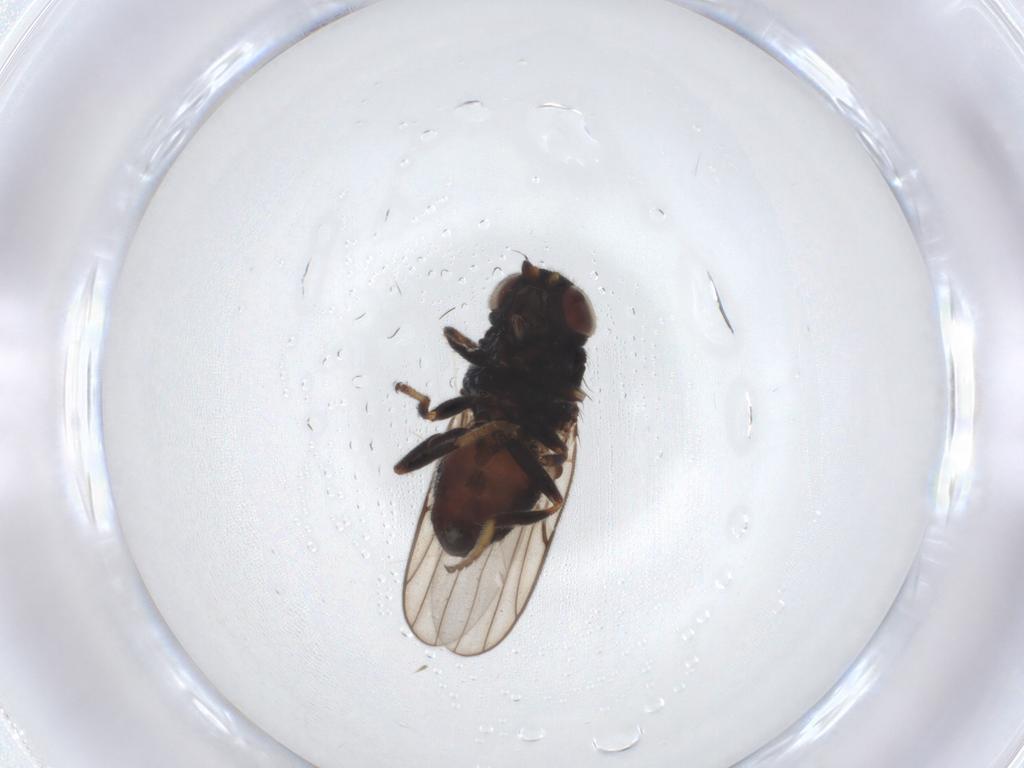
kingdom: Animalia
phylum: Arthropoda
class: Insecta
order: Diptera
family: Chloropidae
